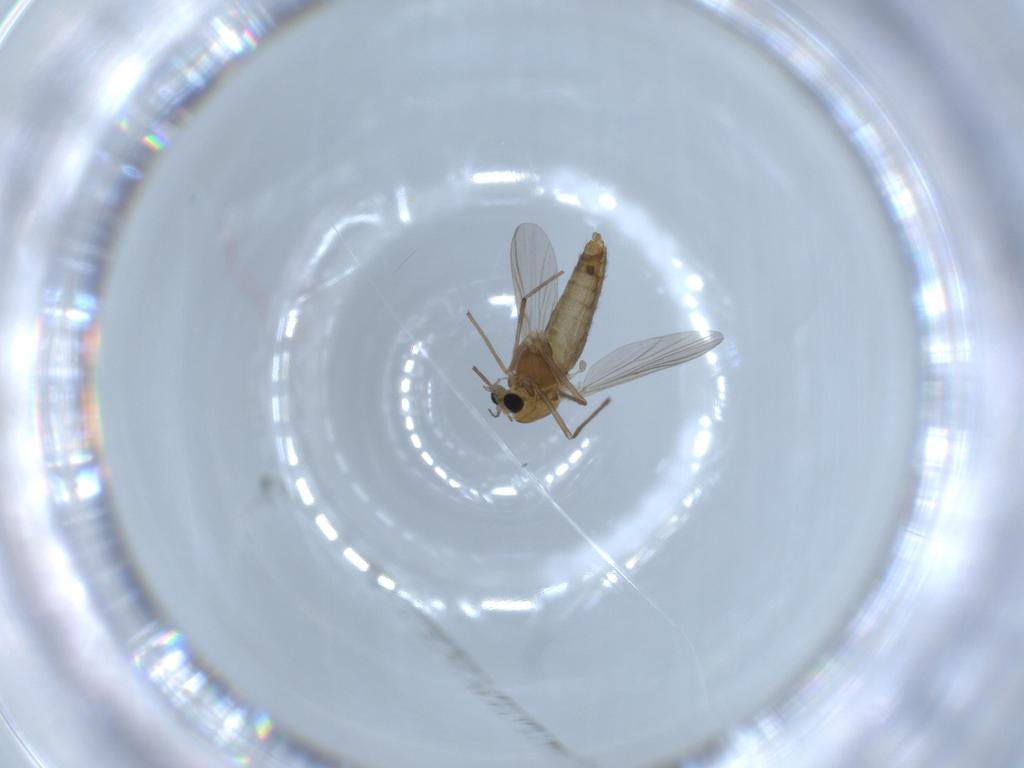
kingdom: Animalia
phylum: Arthropoda
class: Insecta
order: Diptera
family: Chironomidae
